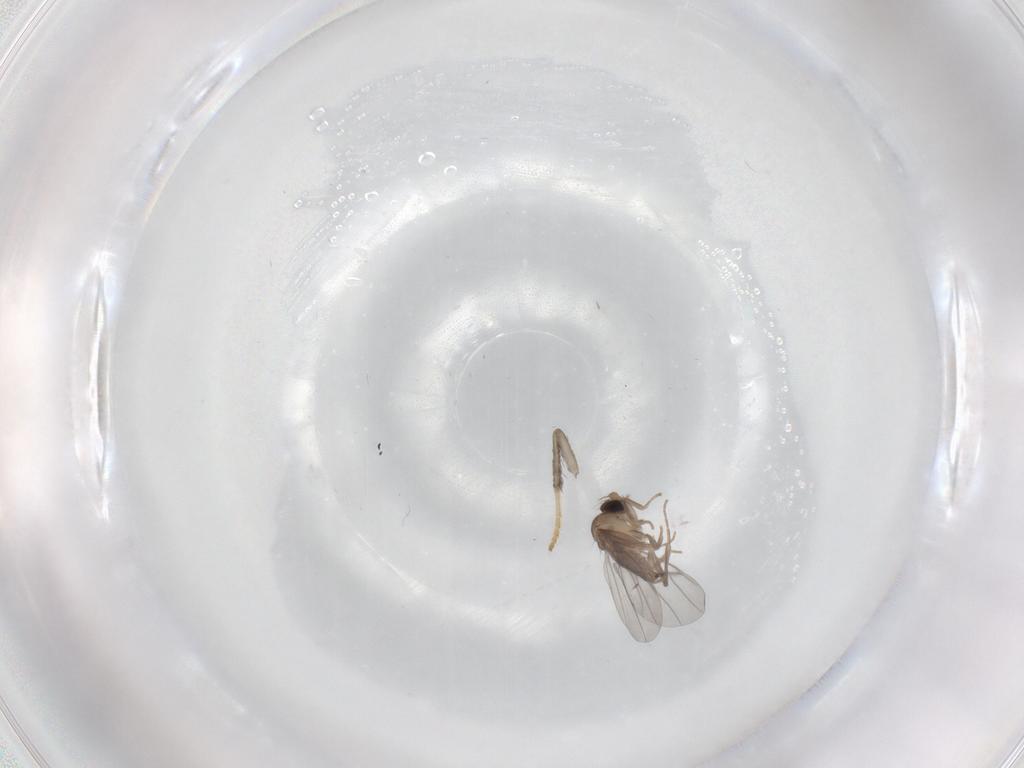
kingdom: Animalia
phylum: Arthropoda
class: Insecta
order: Diptera
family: Psychodidae
